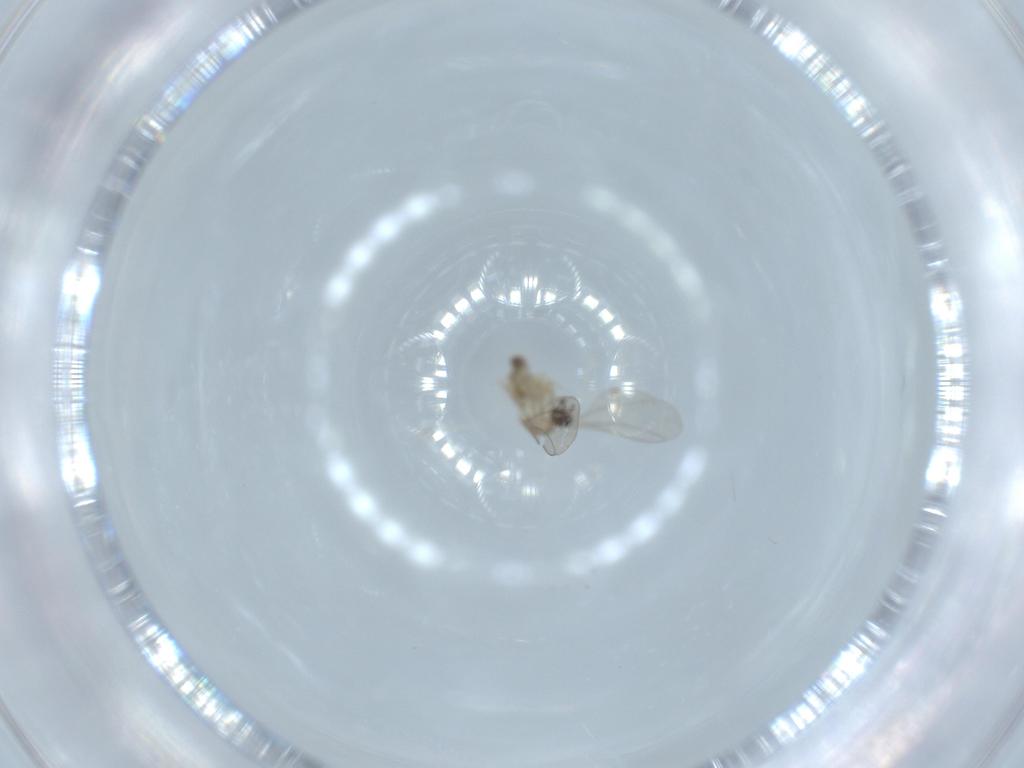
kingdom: Animalia
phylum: Arthropoda
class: Insecta
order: Diptera
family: Cecidomyiidae
